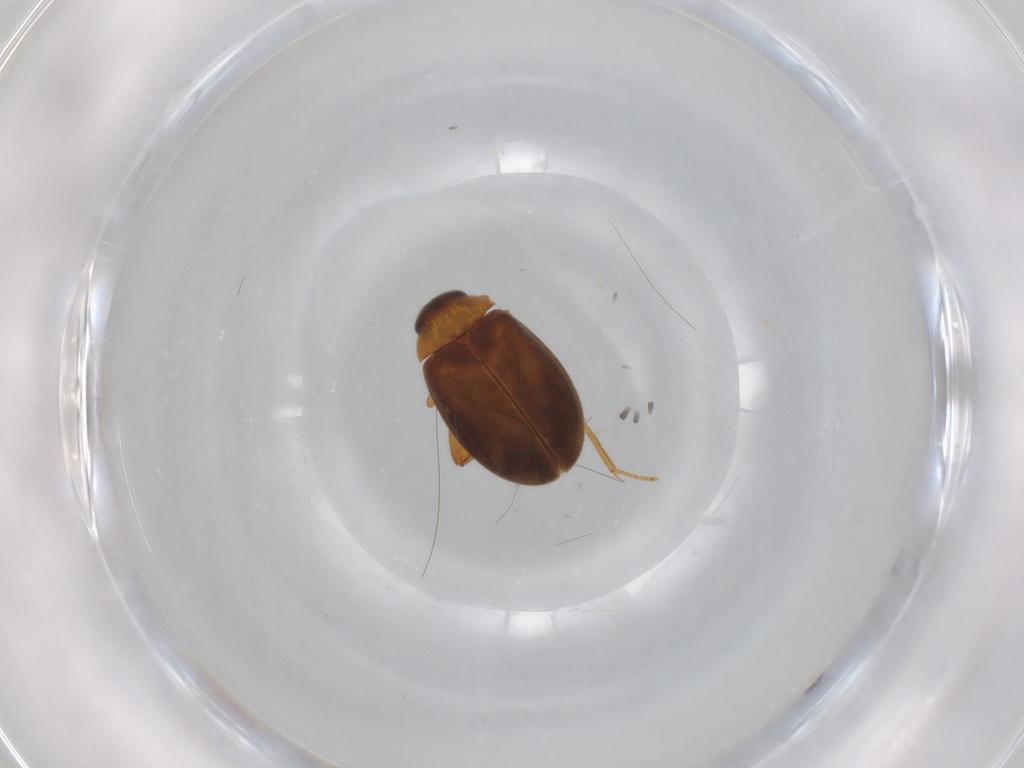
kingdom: Animalia
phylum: Arthropoda
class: Insecta
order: Coleoptera
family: Scirtidae
